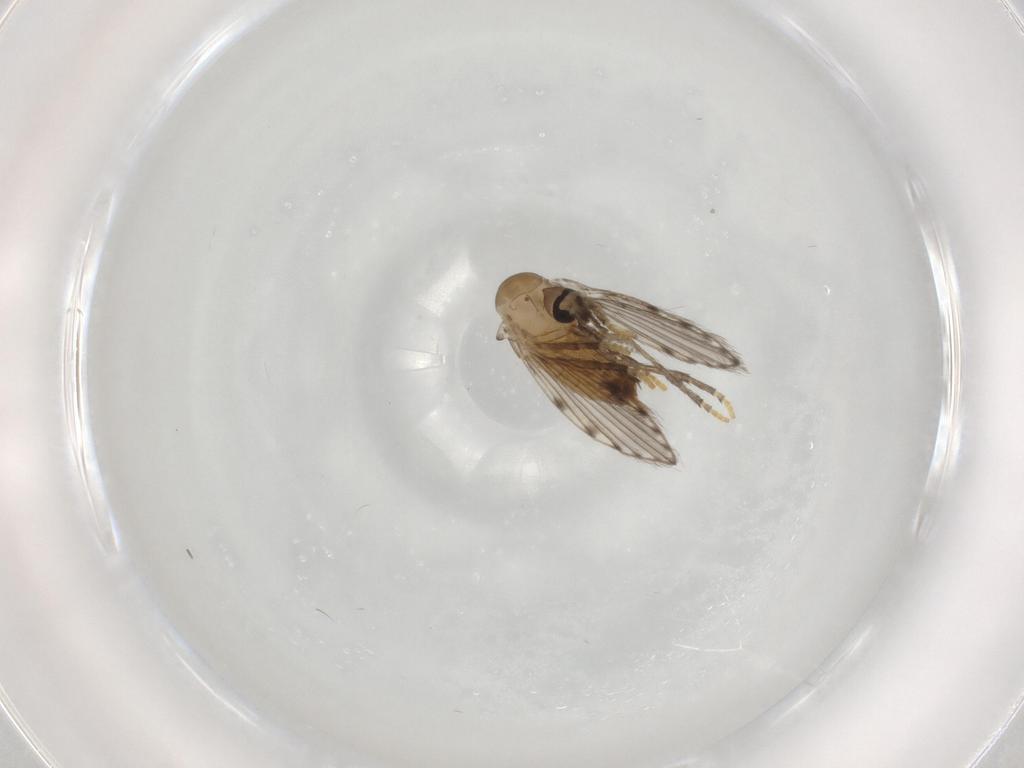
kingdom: Animalia
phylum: Arthropoda
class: Insecta
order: Diptera
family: Psychodidae
